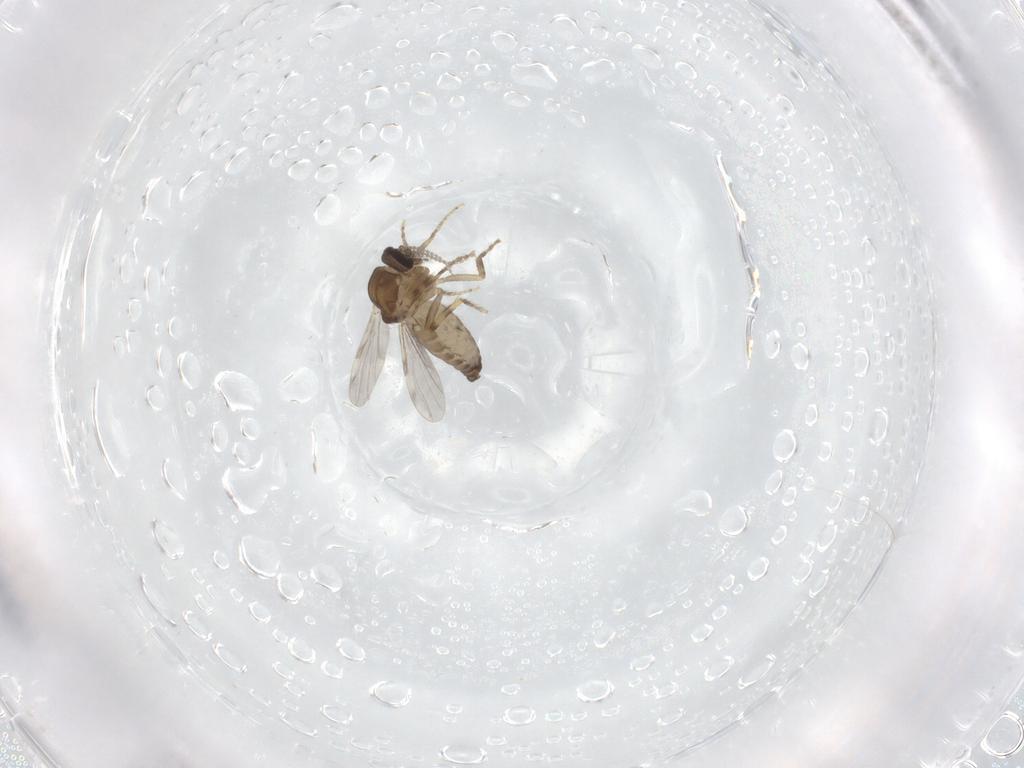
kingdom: Animalia
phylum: Arthropoda
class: Insecta
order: Diptera
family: Ceratopogonidae
